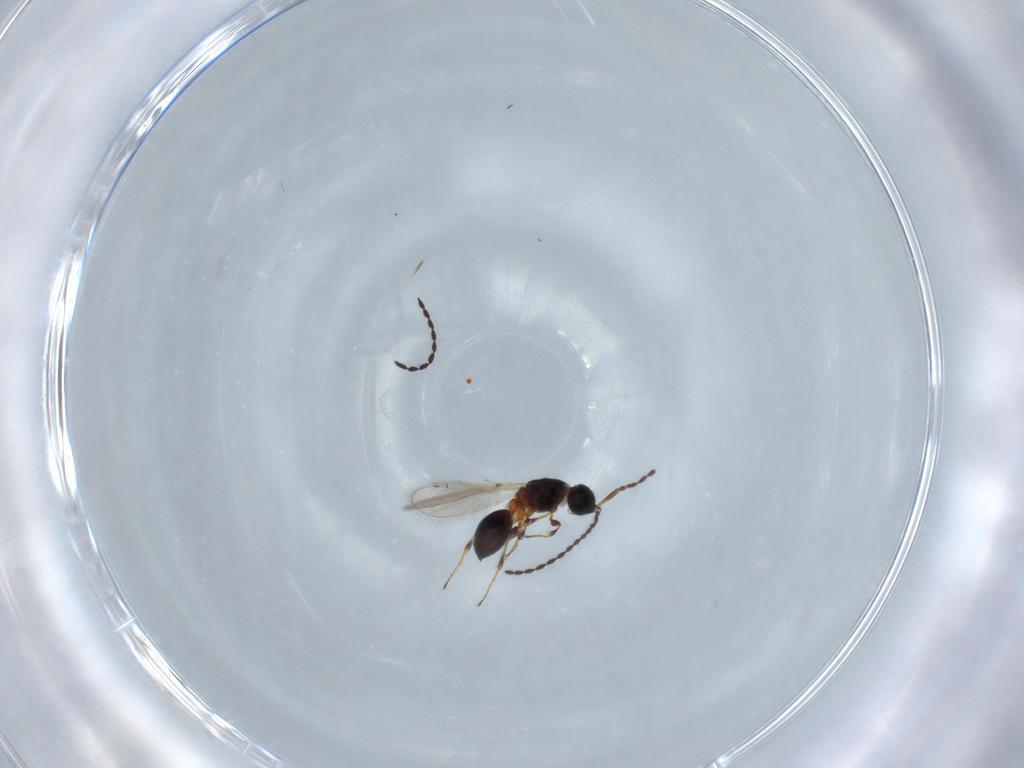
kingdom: Animalia
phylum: Arthropoda
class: Insecta
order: Hymenoptera
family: Diapriidae
